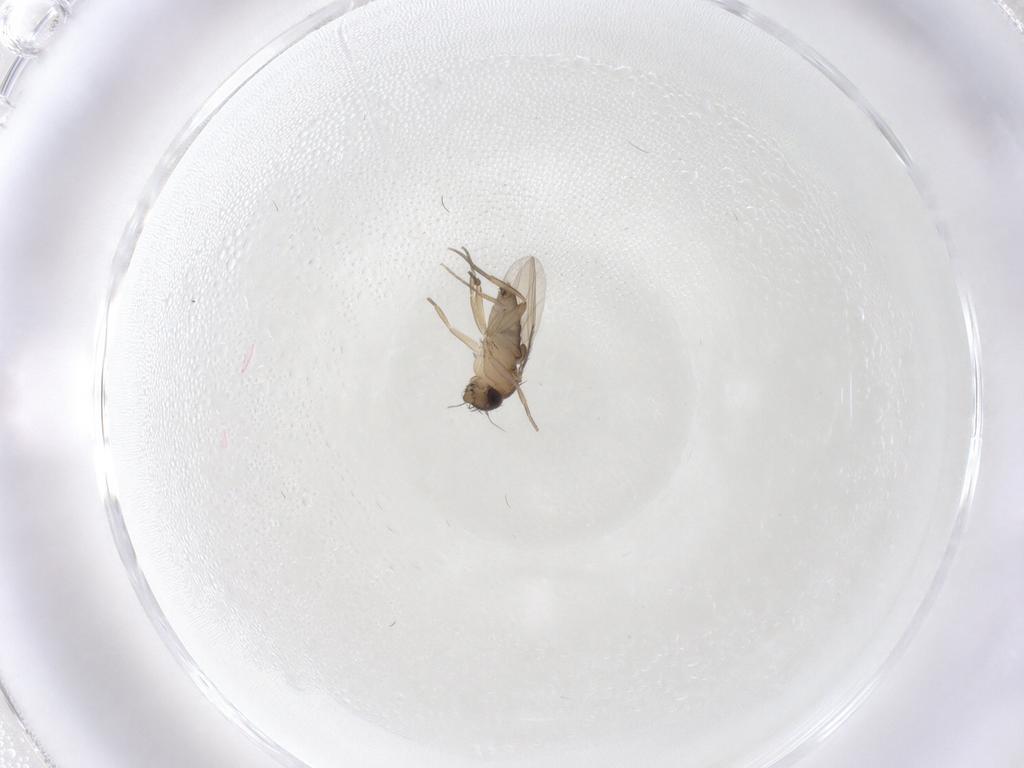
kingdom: Animalia
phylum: Arthropoda
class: Insecta
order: Diptera
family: Phoridae
